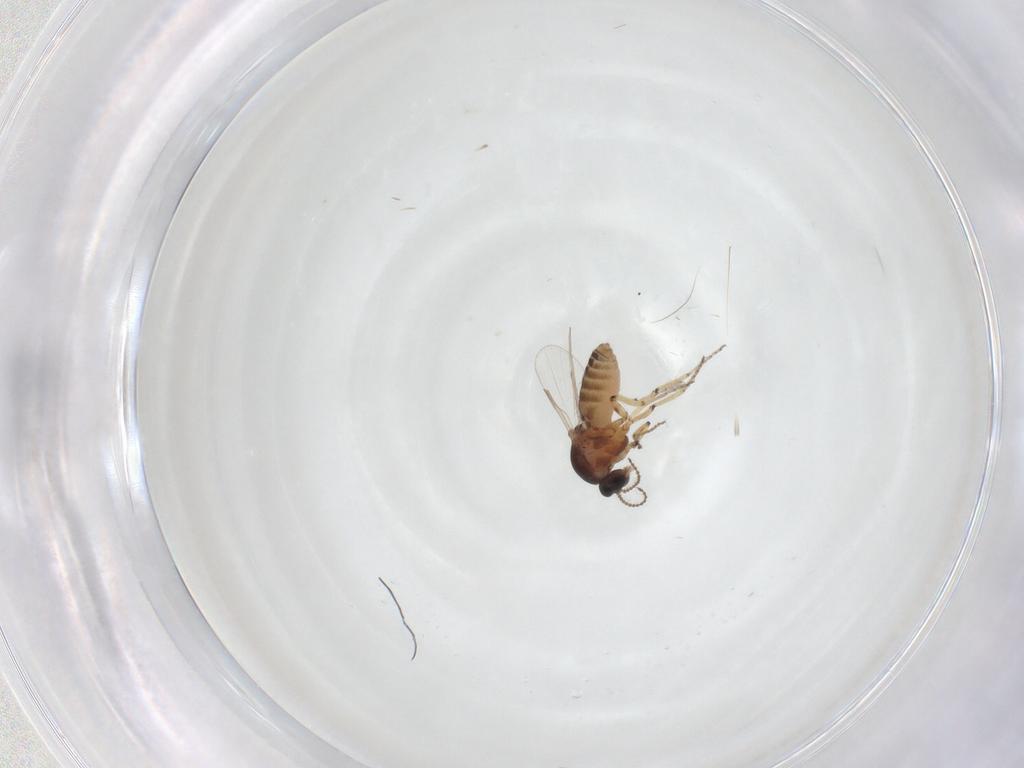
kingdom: Animalia
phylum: Arthropoda
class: Insecta
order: Diptera
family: Ceratopogonidae
